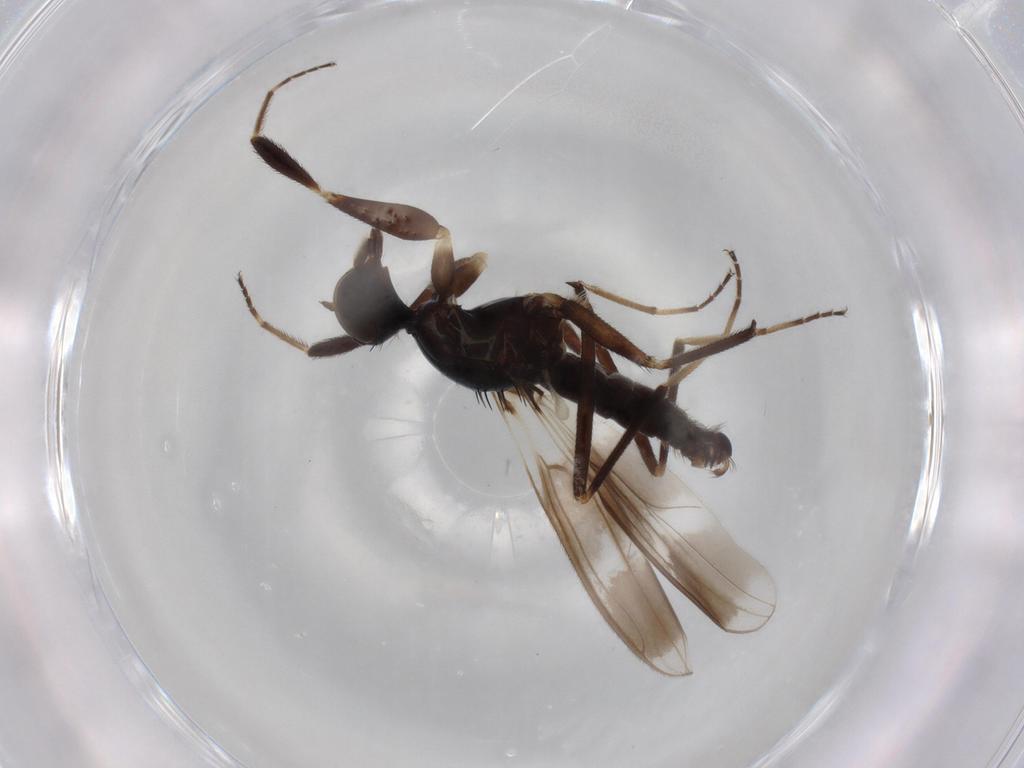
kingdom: Animalia
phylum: Arthropoda
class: Insecta
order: Diptera
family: Hybotidae
